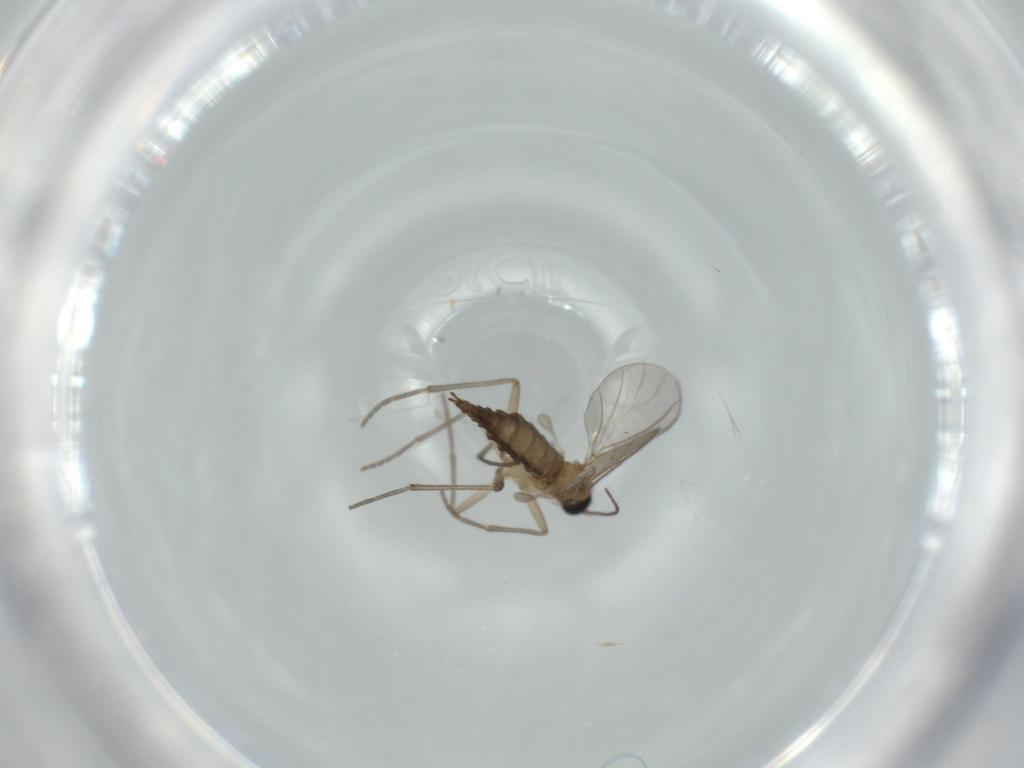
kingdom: Animalia
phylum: Arthropoda
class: Insecta
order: Diptera
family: Sciaridae
